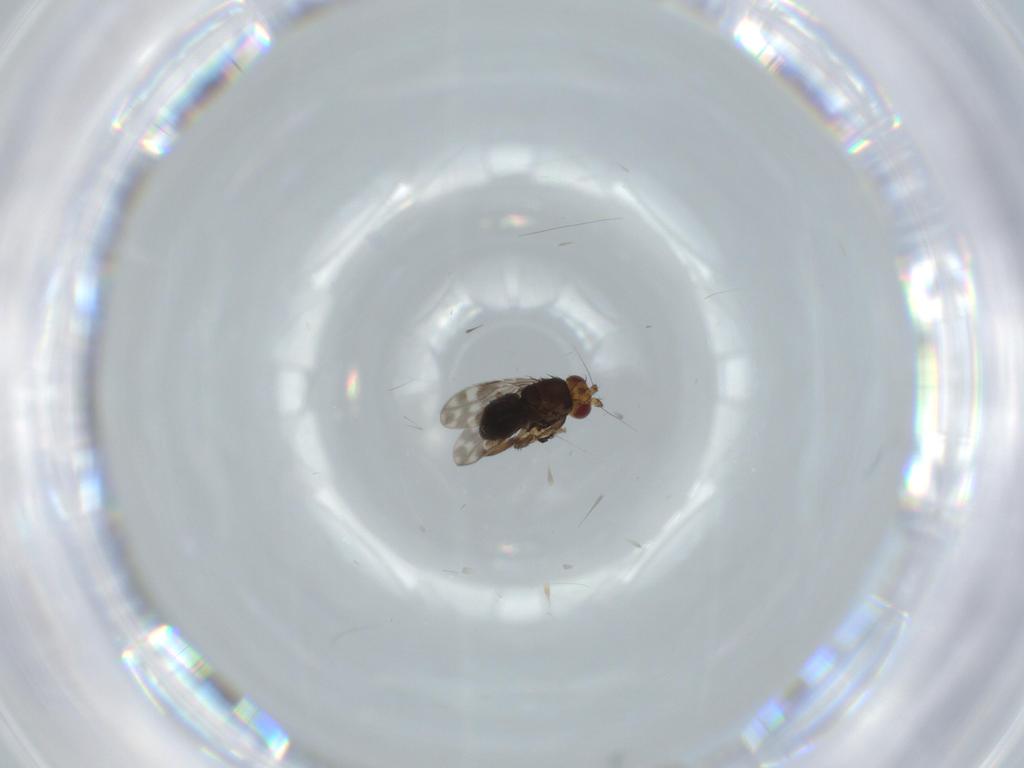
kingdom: Animalia
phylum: Arthropoda
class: Insecta
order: Diptera
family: Sphaeroceridae
